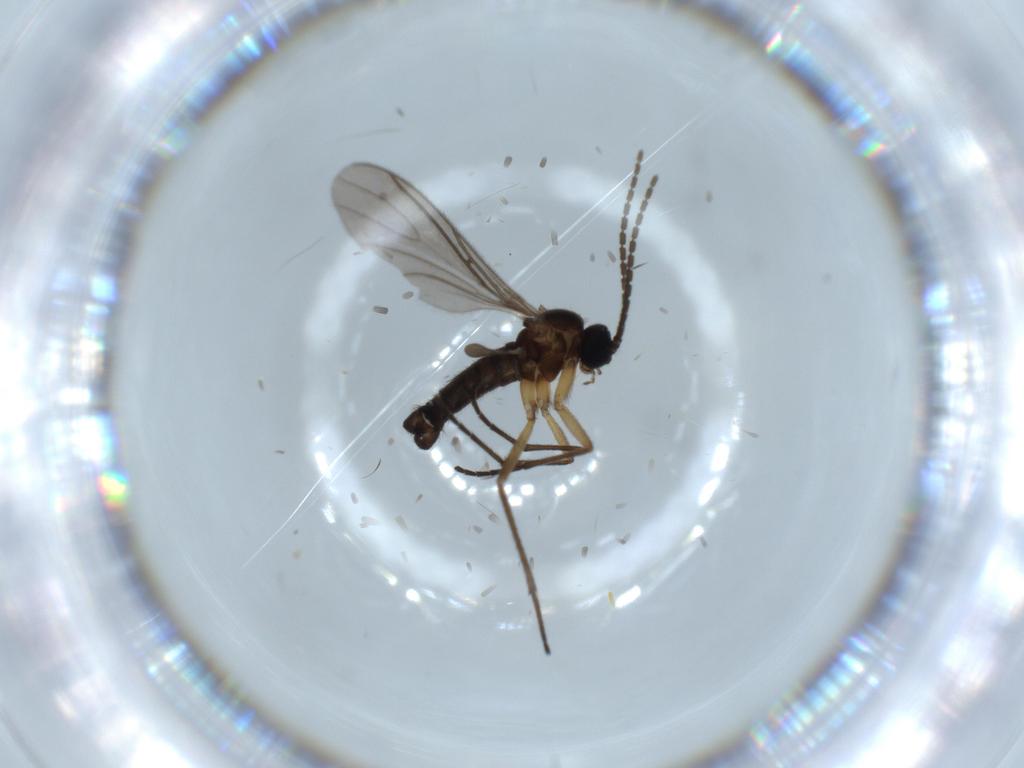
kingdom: Animalia
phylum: Arthropoda
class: Insecta
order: Diptera
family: Sciaridae
